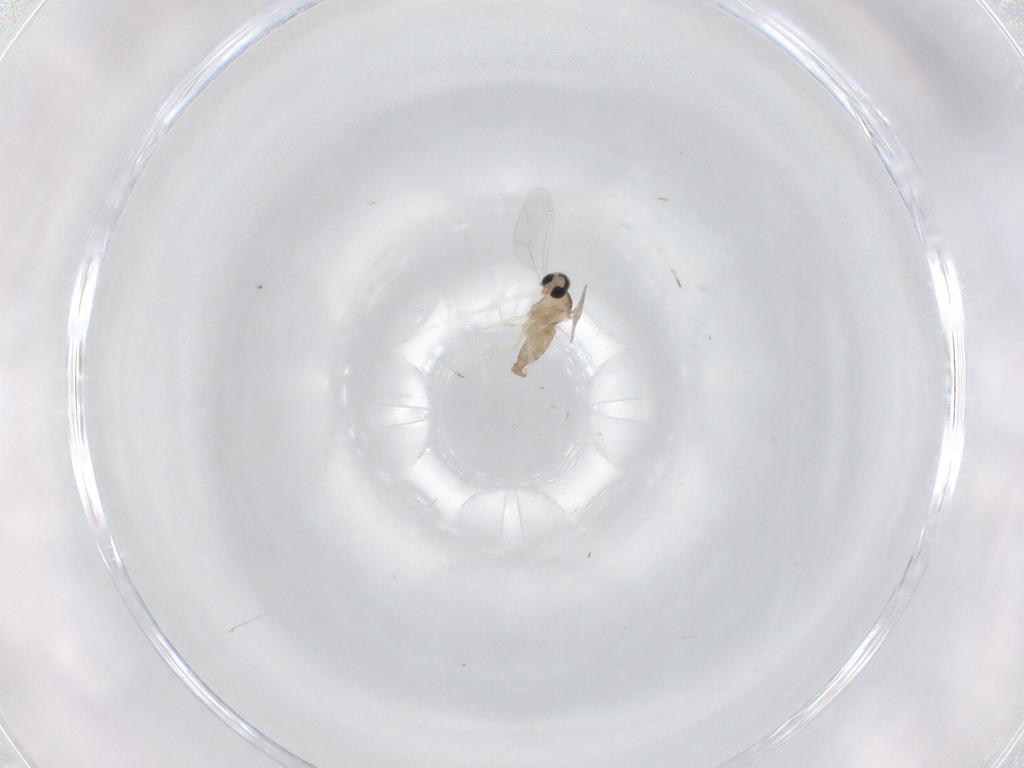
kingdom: Animalia
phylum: Arthropoda
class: Insecta
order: Diptera
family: Cecidomyiidae
